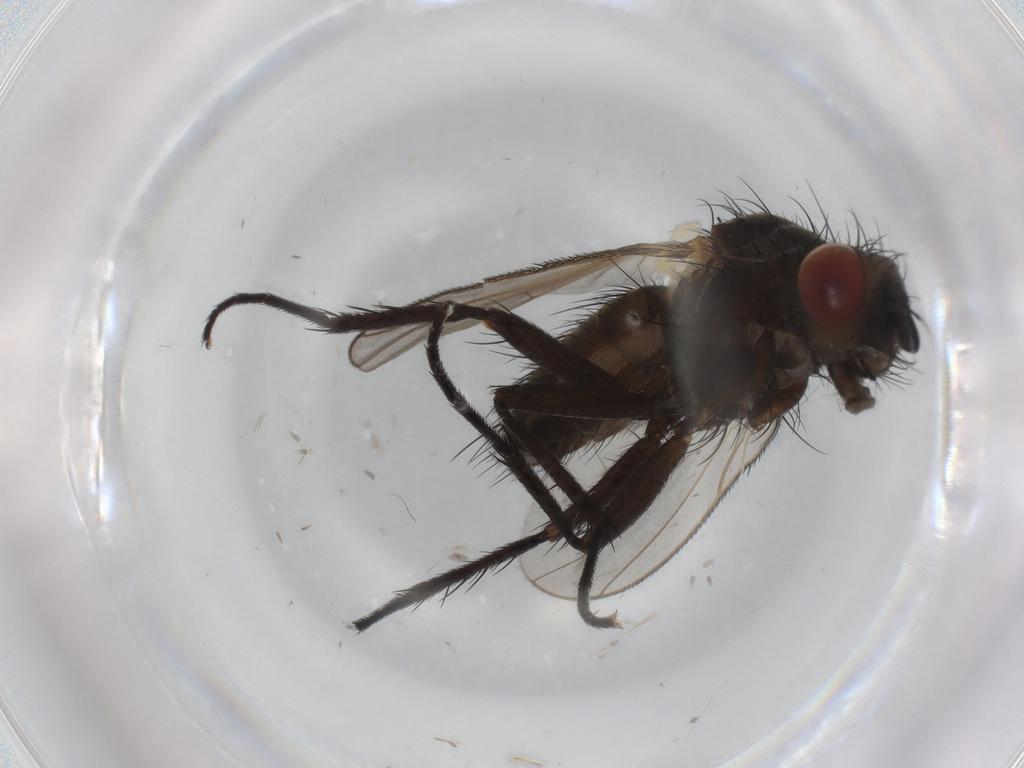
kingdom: Animalia
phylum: Arthropoda
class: Insecta
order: Diptera
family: Anthomyiidae
